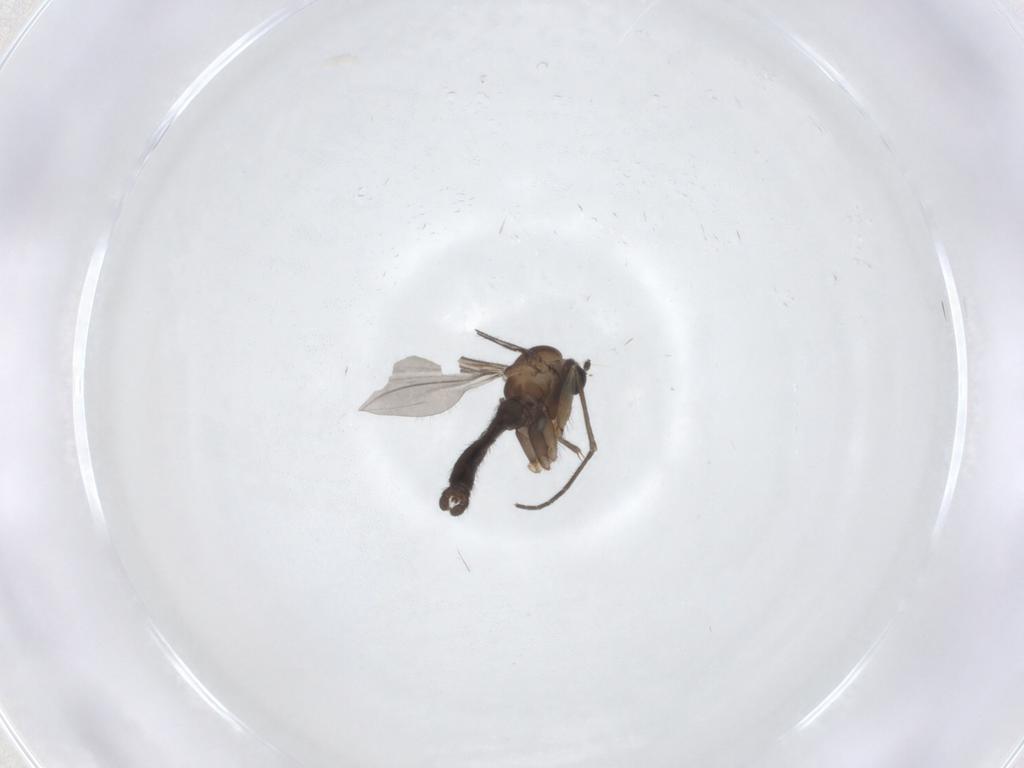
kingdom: Animalia
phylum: Arthropoda
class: Insecta
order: Diptera
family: Sciaridae
